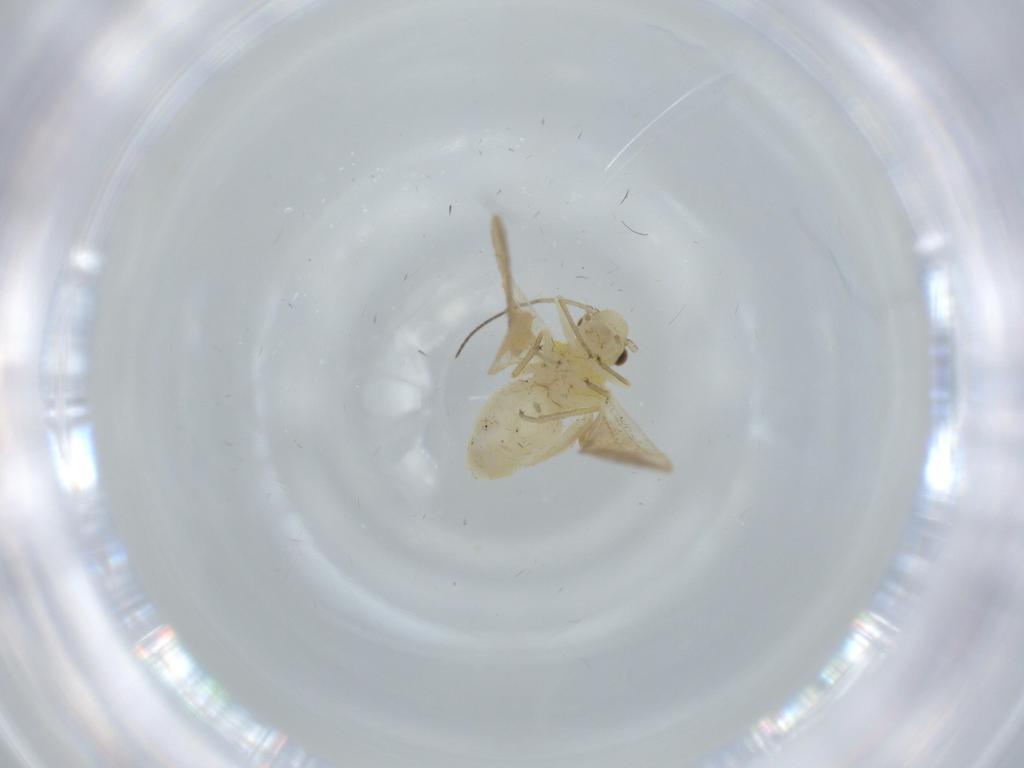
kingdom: Animalia
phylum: Arthropoda
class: Insecta
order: Psocodea
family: Caeciliusidae
